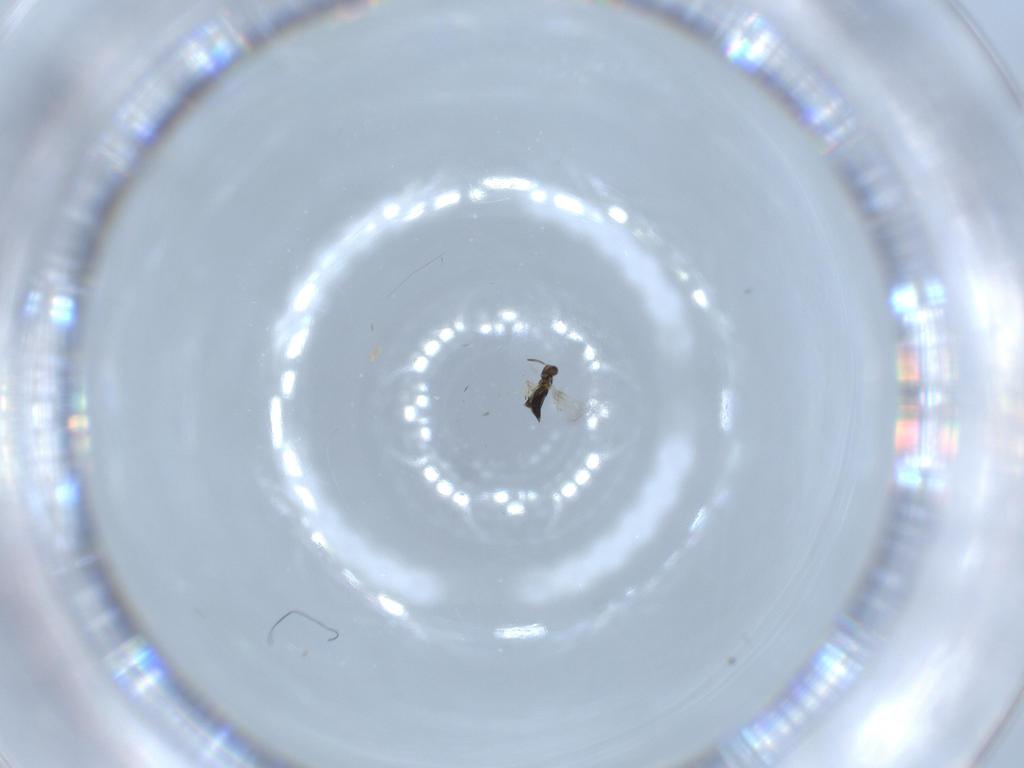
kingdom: Animalia
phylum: Arthropoda
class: Insecta
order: Hymenoptera
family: Signiphoridae
